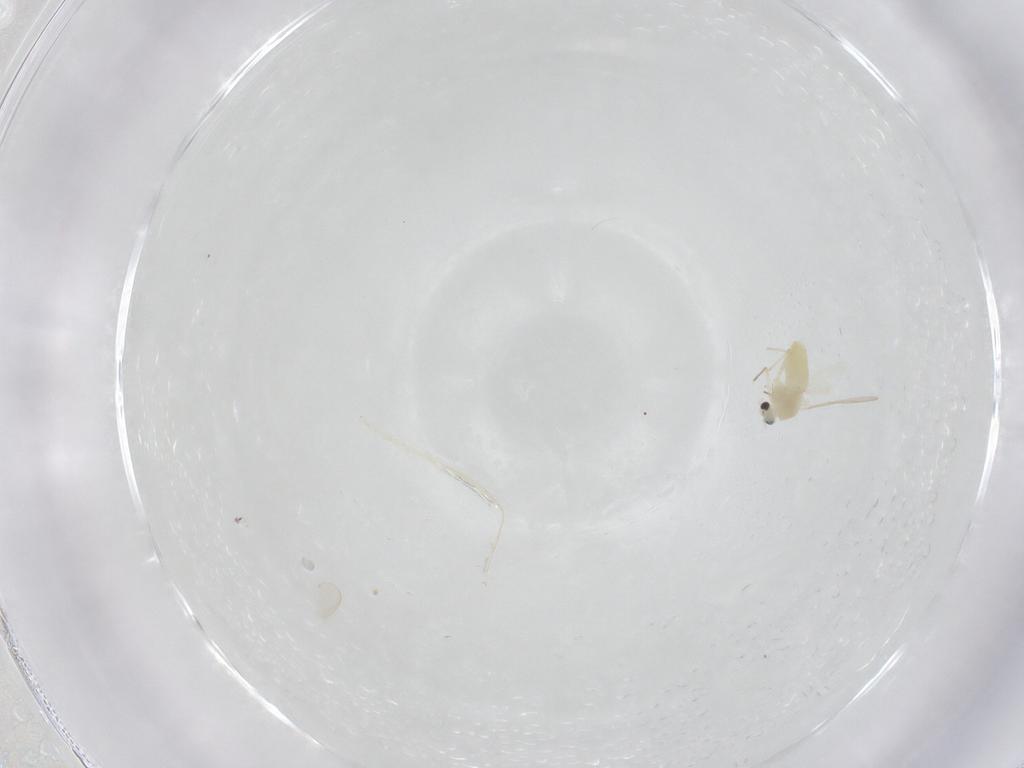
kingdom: Animalia
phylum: Arthropoda
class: Insecta
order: Diptera
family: Chironomidae
